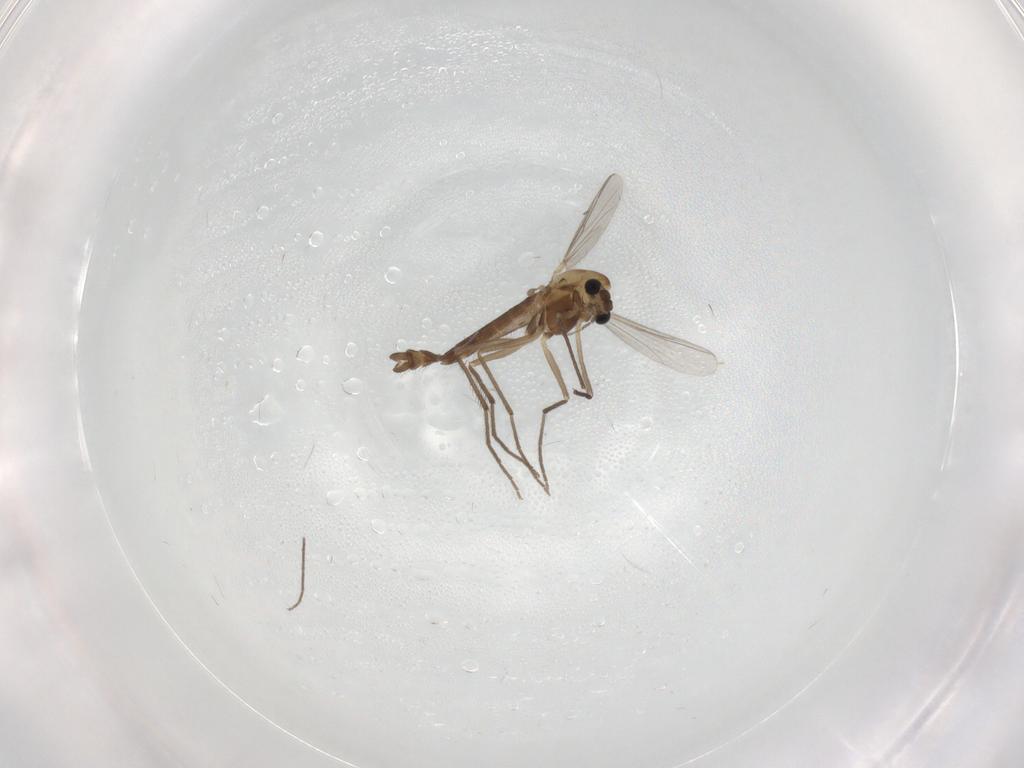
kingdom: Animalia
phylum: Arthropoda
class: Insecta
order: Diptera
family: Chironomidae
